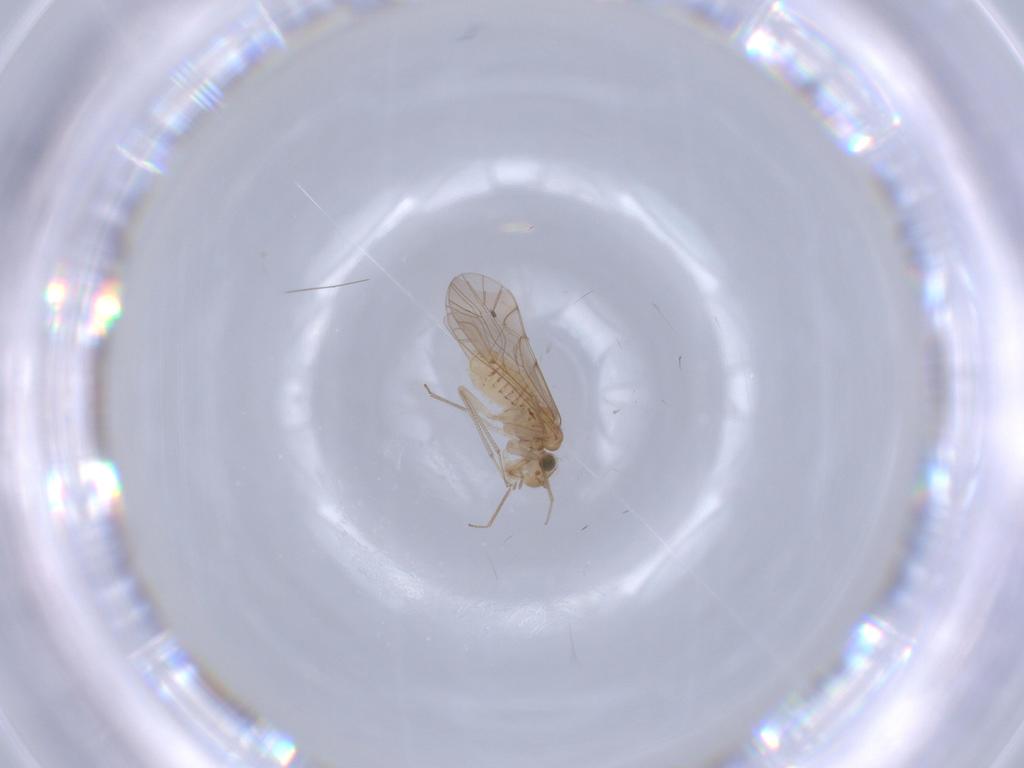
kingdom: Animalia
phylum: Arthropoda
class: Insecta
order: Psocodea
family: Lachesillidae
